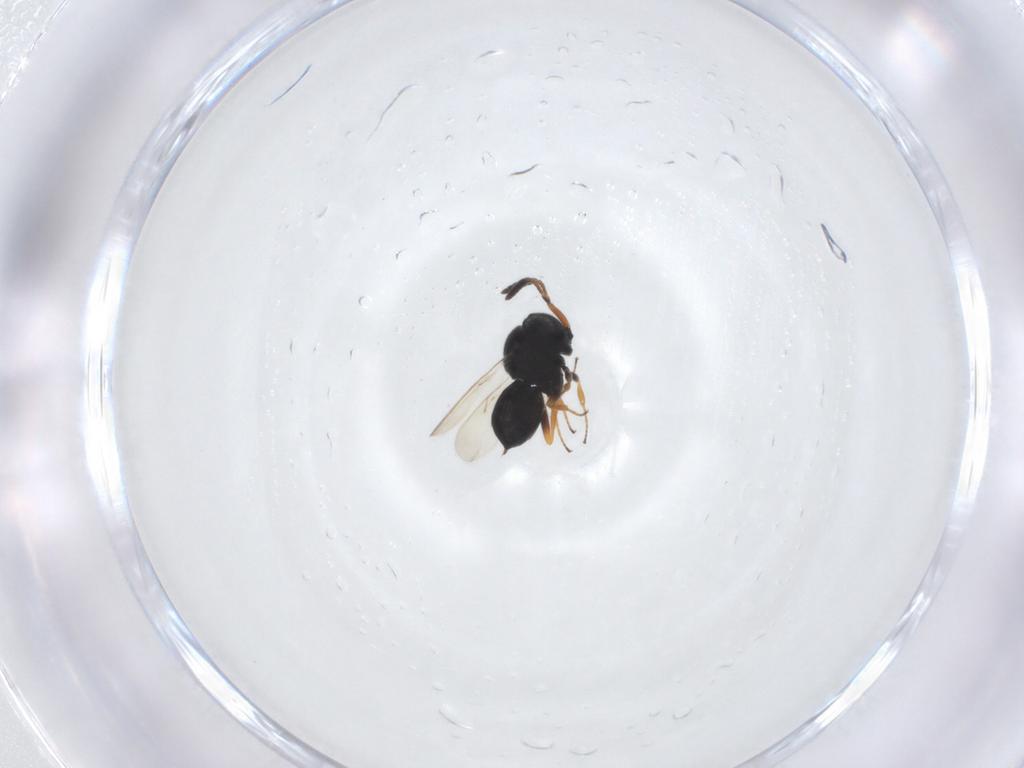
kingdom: Animalia
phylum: Arthropoda
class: Insecta
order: Hymenoptera
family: Scelionidae
